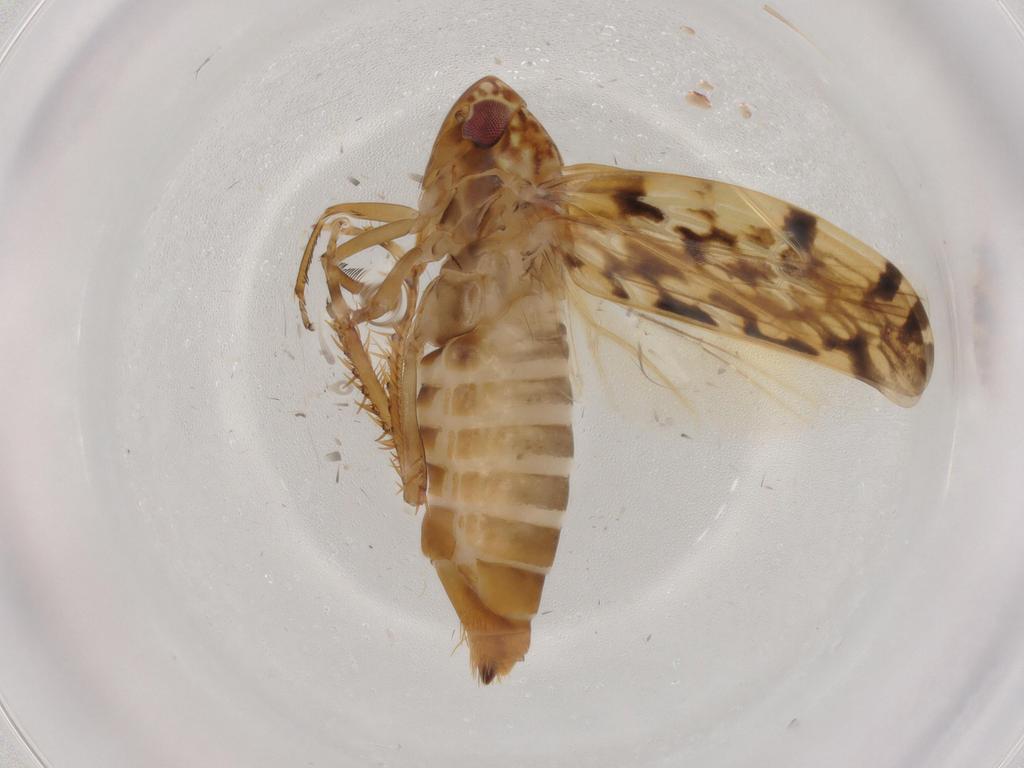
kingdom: Animalia
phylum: Arthropoda
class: Insecta
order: Hemiptera
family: Cicadellidae
